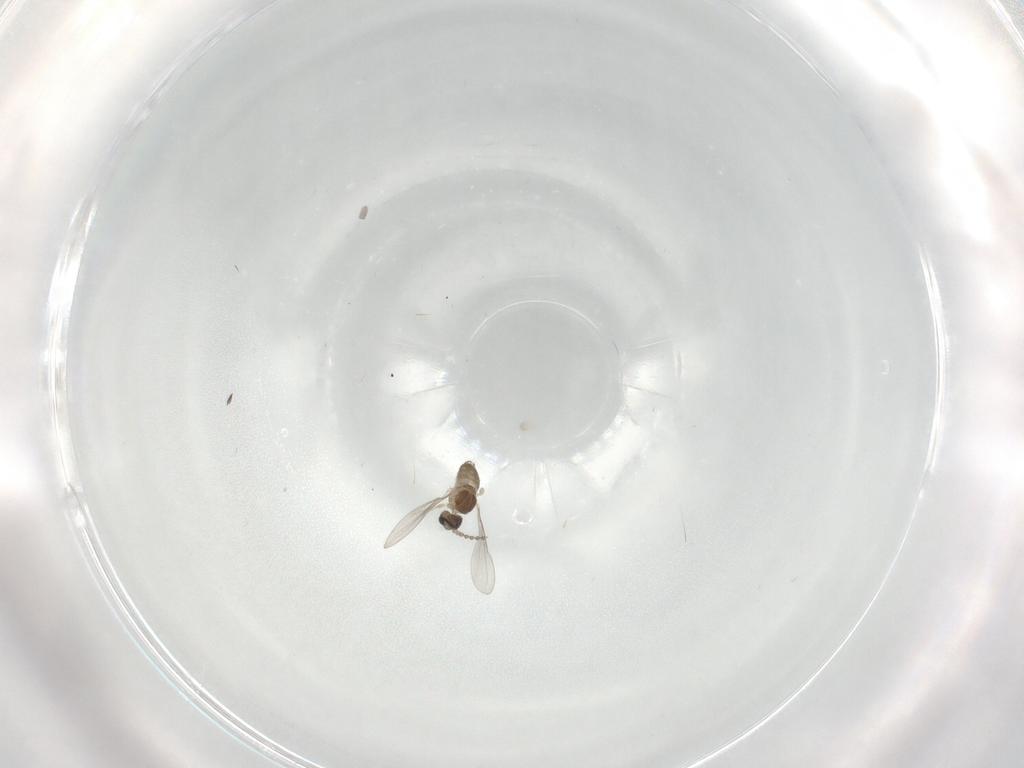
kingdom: Animalia
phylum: Arthropoda
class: Insecta
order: Diptera
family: Cecidomyiidae
